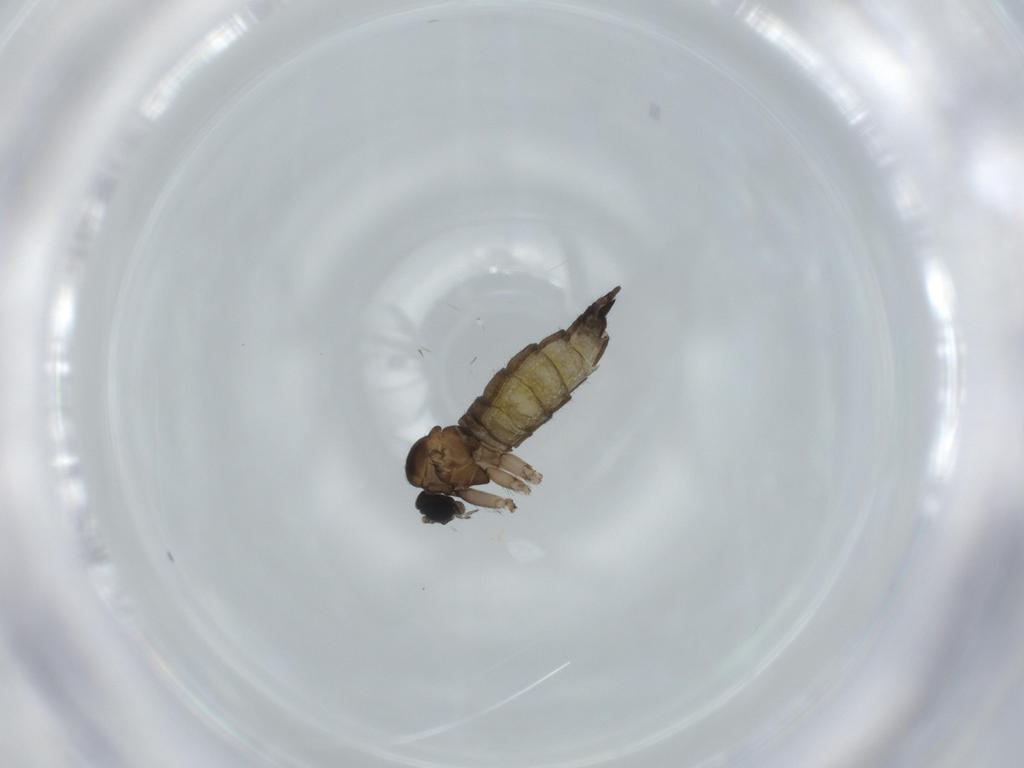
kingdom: Animalia
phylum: Arthropoda
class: Insecta
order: Diptera
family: Sciaridae
